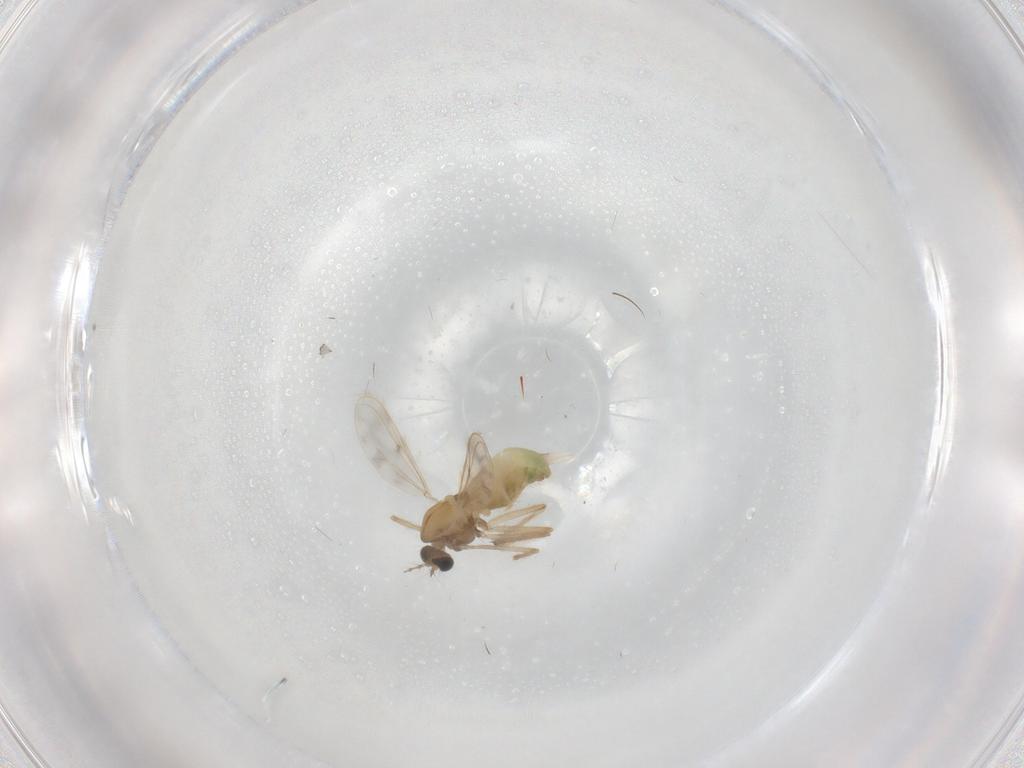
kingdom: Animalia
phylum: Arthropoda
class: Insecta
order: Diptera
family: Chironomidae
